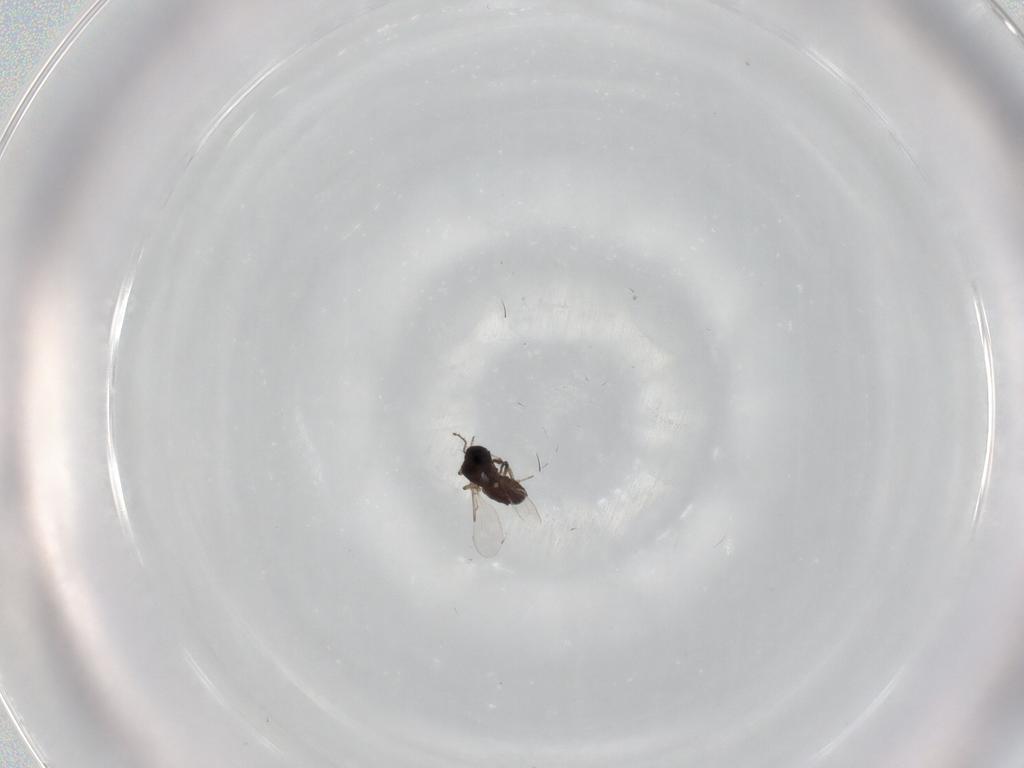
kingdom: Animalia
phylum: Arthropoda
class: Insecta
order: Diptera
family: Ceratopogonidae
